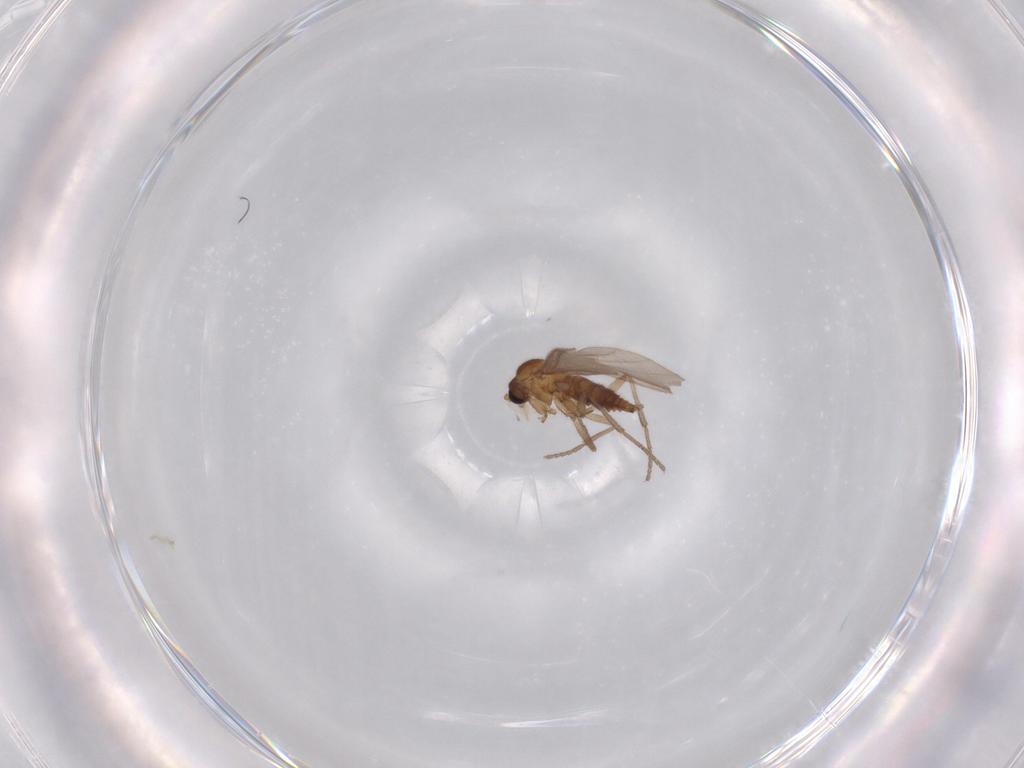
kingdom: Animalia
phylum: Arthropoda
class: Insecta
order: Diptera
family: Sciaridae
